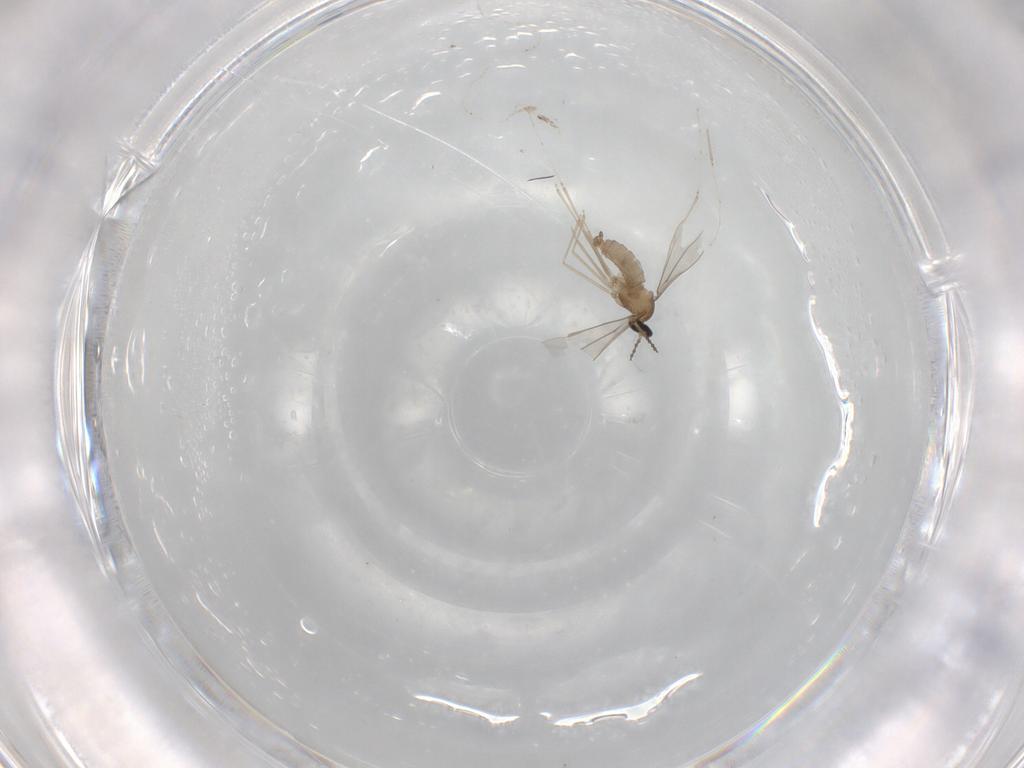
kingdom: Animalia
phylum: Arthropoda
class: Insecta
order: Diptera
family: Cecidomyiidae
